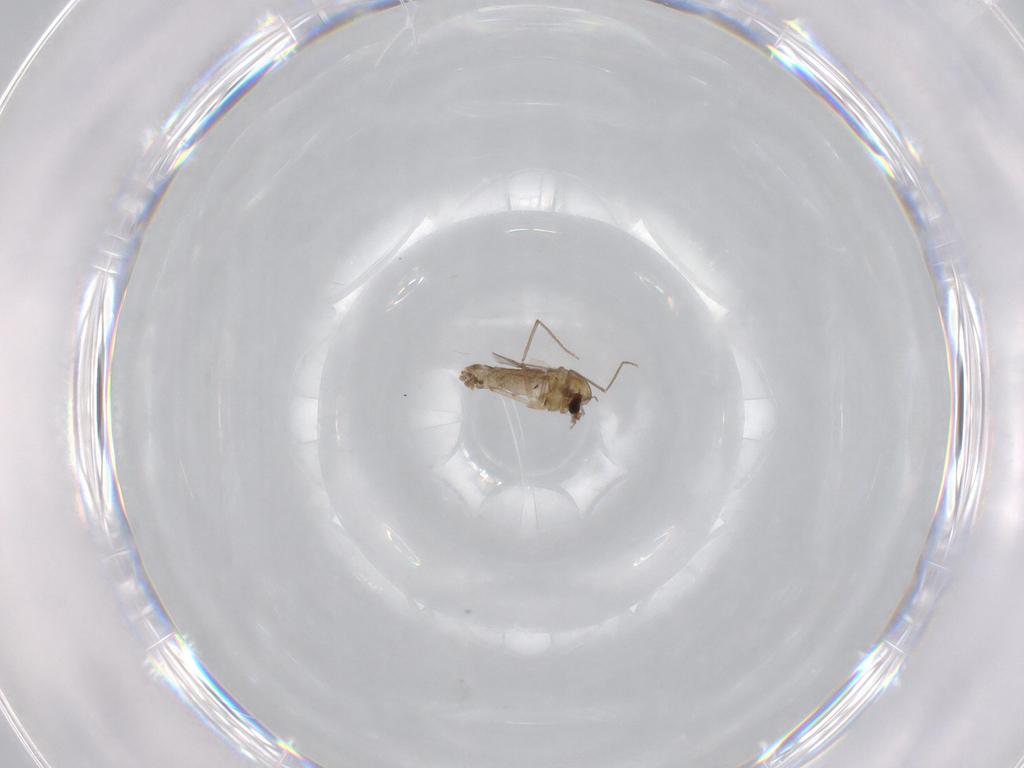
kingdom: Animalia
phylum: Arthropoda
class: Insecta
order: Diptera
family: Chironomidae
